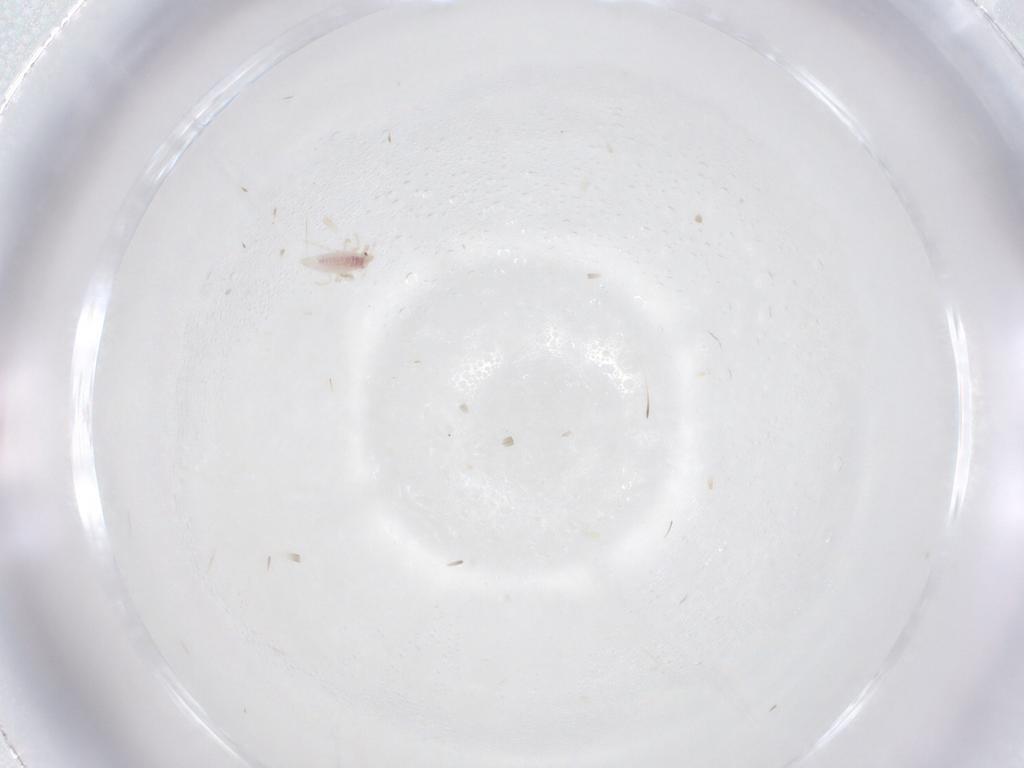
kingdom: Animalia
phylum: Arthropoda
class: Insecta
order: Neuroptera
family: Coniopterygidae
